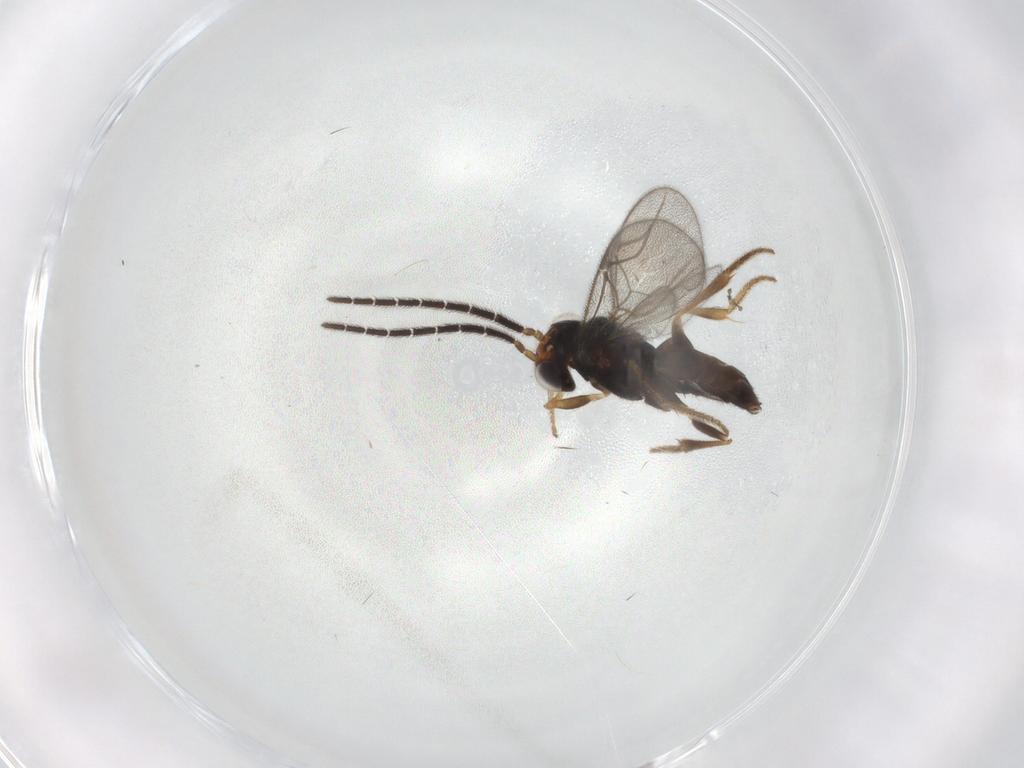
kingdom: Animalia
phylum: Arthropoda
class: Insecta
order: Hymenoptera
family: Dryinidae
